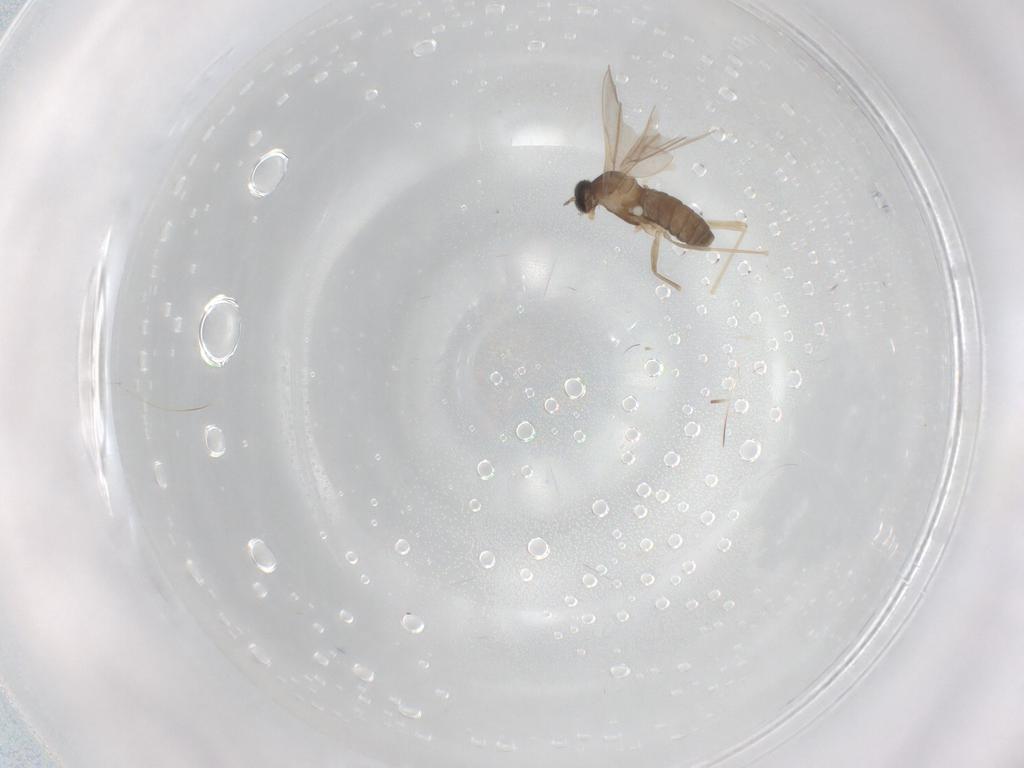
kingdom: Animalia
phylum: Arthropoda
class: Insecta
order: Diptera
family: Cecidomyiidae
